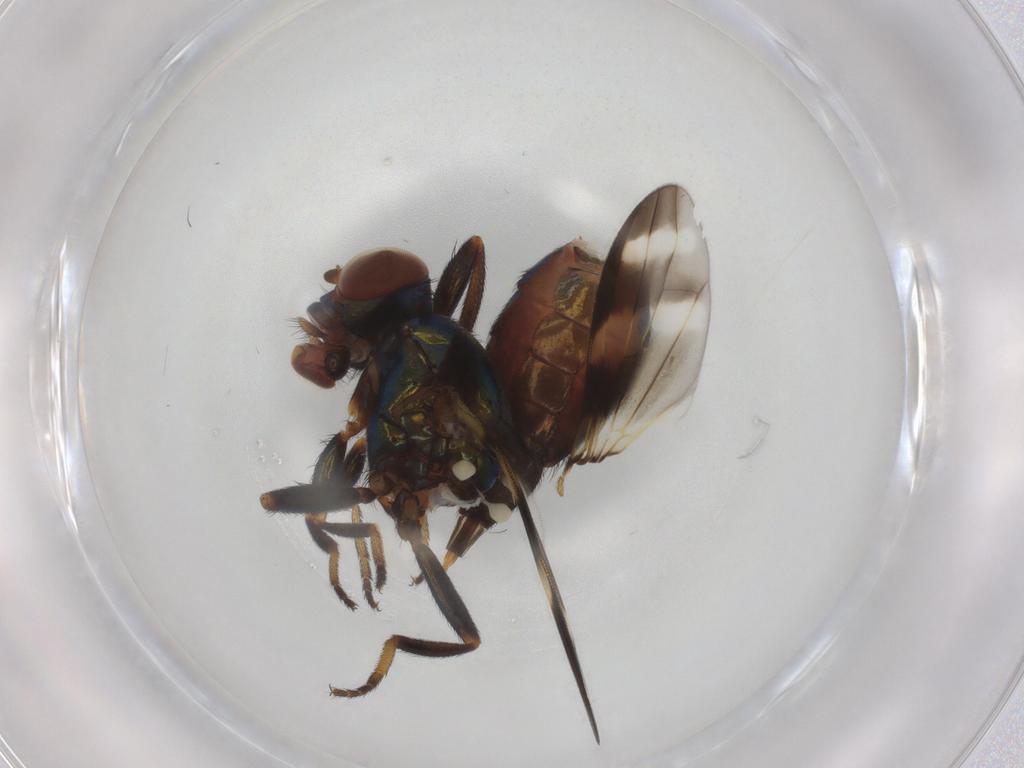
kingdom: Animalia
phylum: Arthropoda
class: Insecta
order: Diptera
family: Ulidiidae
